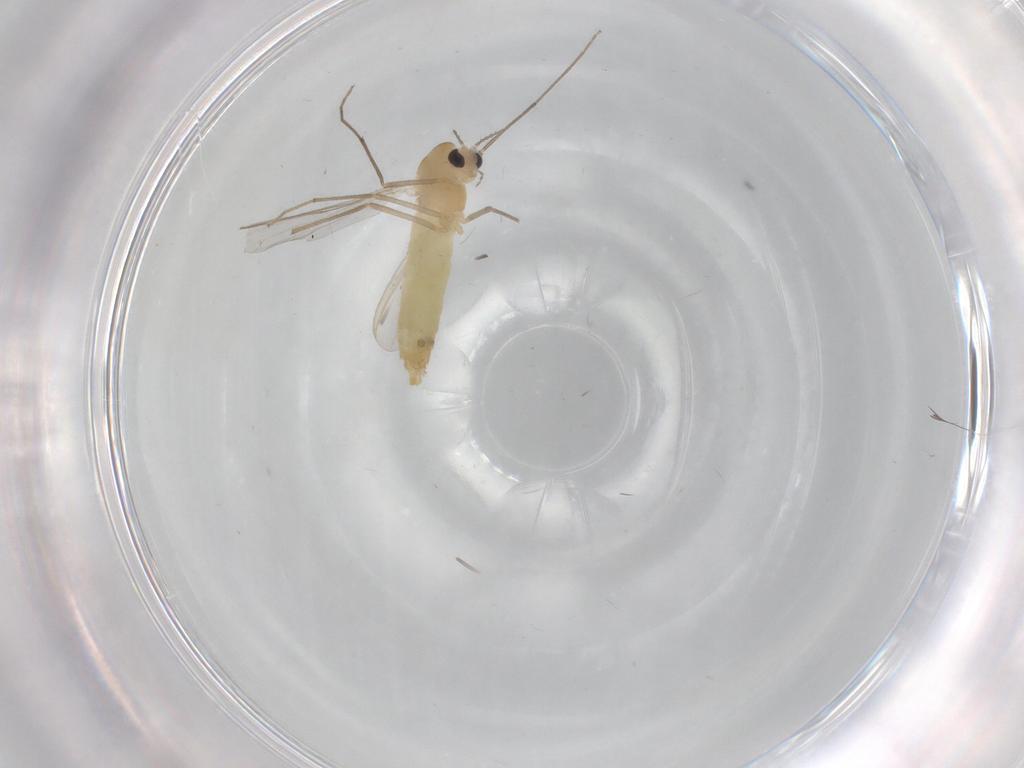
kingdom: Animalia
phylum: Arthropoda
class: Insecta
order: Diptera
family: Chironomidae
